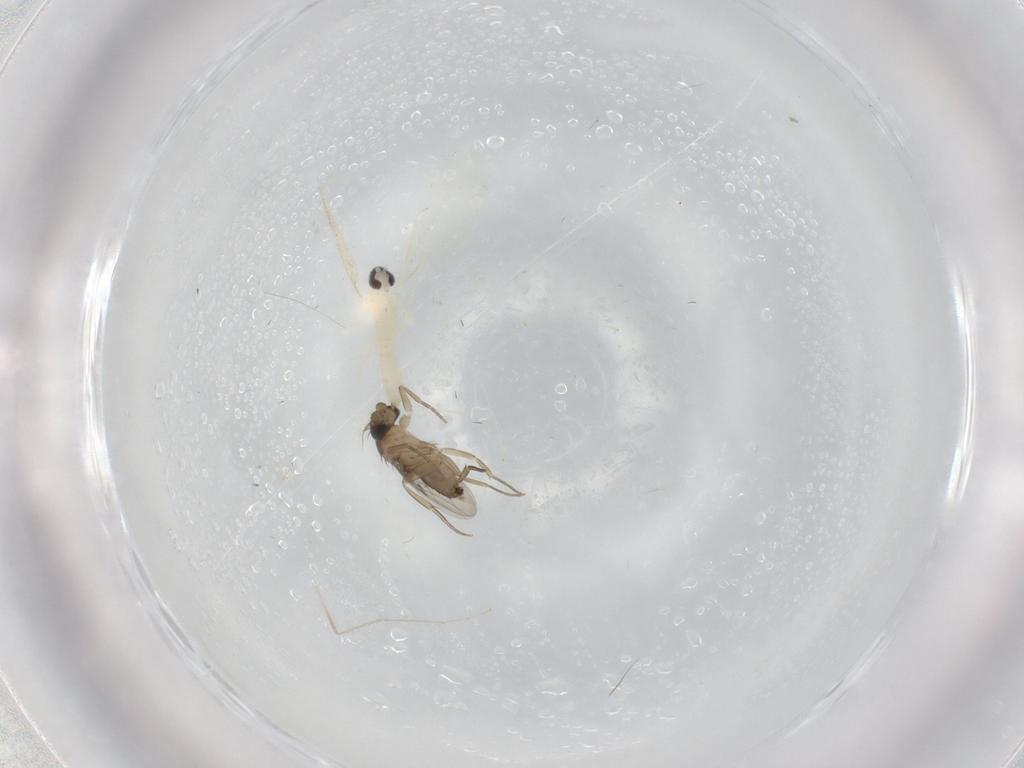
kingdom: Animalia
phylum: Arthropoda
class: Insecta
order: Diptera
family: Phoridae
